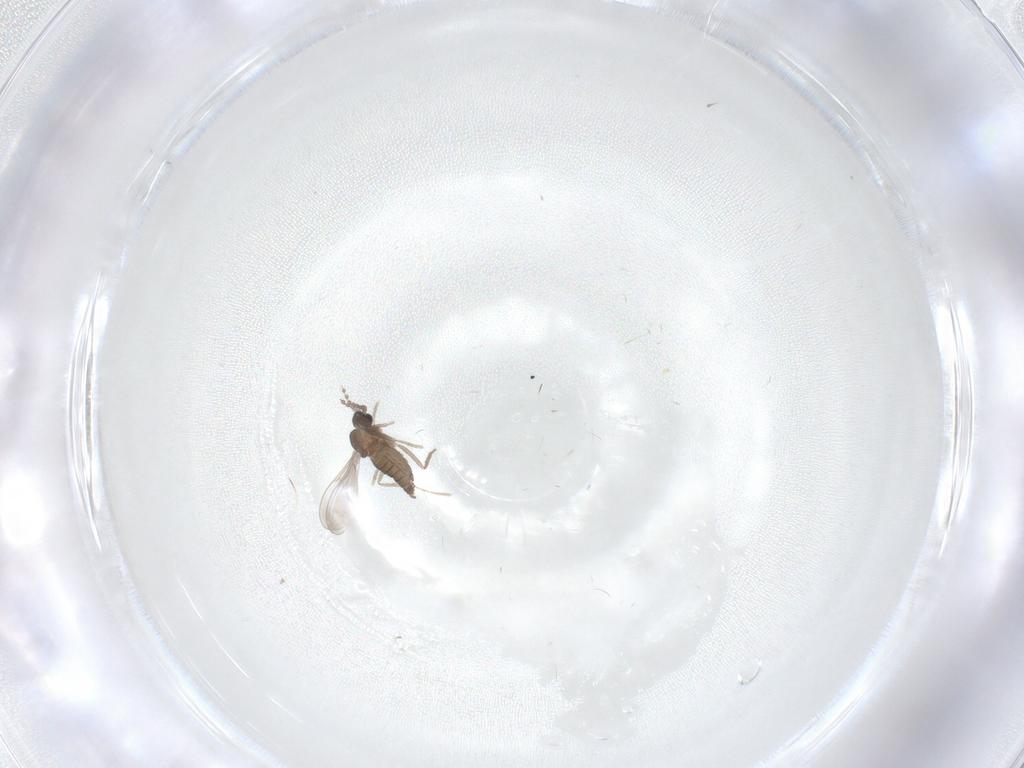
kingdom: Animalia
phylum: Arthropoda
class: Insecta
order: Diptera
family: Cecidomyiidae
